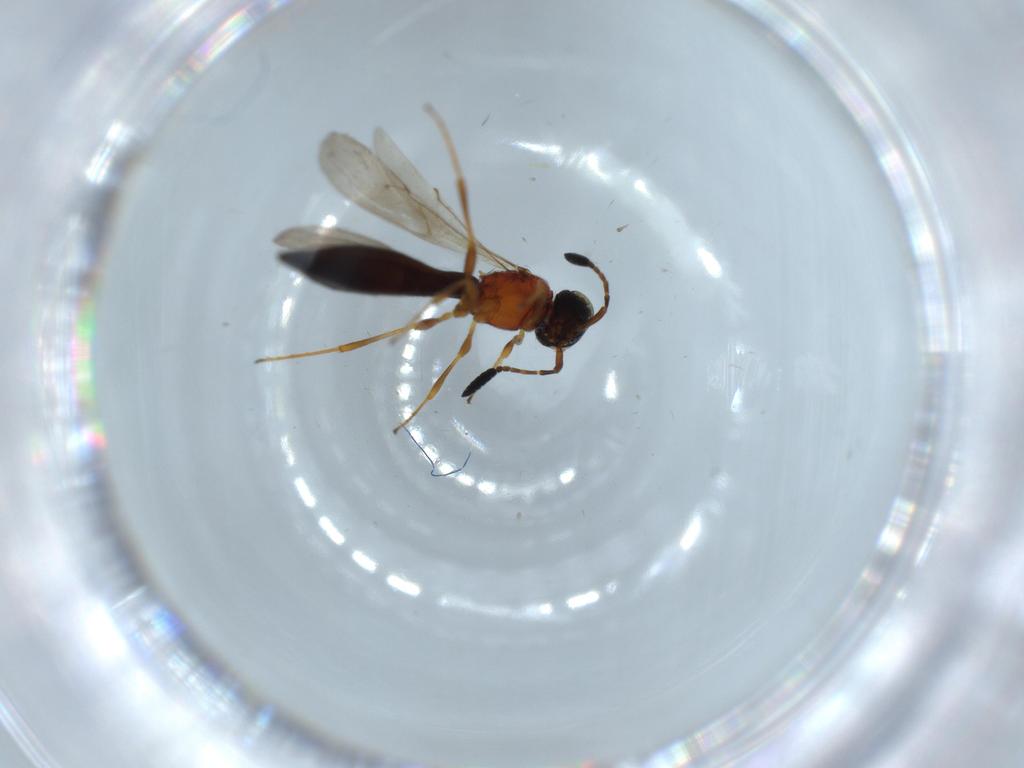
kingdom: Animalia
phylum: Arthropoda
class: Insecta
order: Hymenoptera
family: Scelionidae
